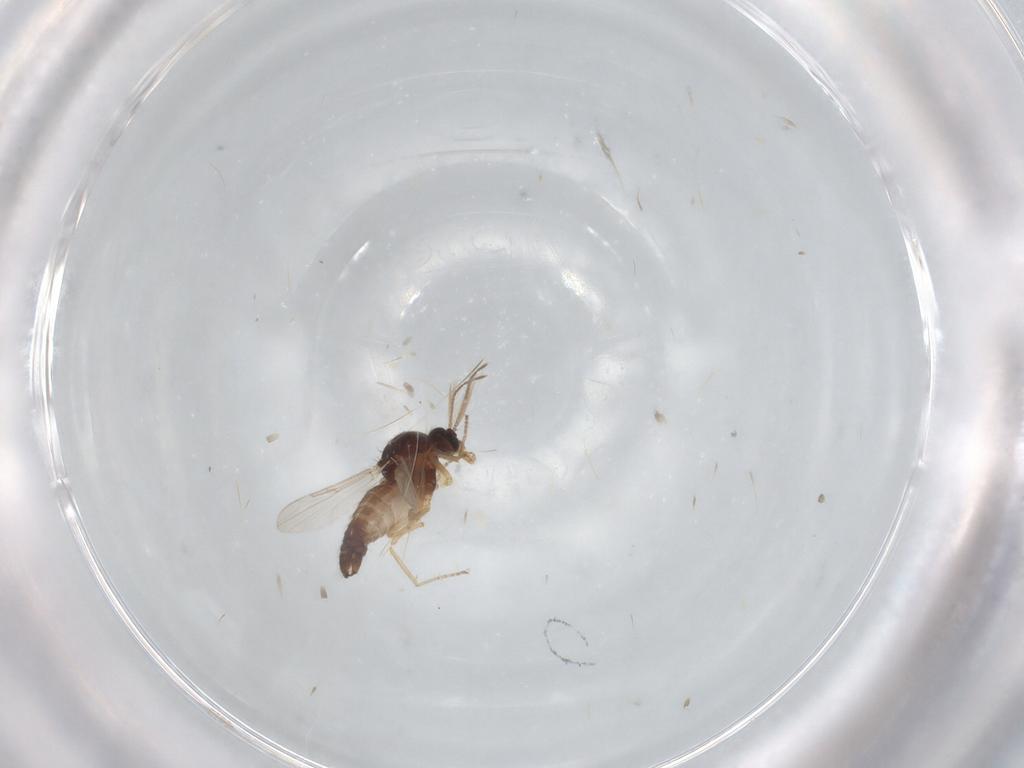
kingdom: Animalia
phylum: Arthropoda
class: Insecta
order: Diptera
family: Ceratopogonidae
